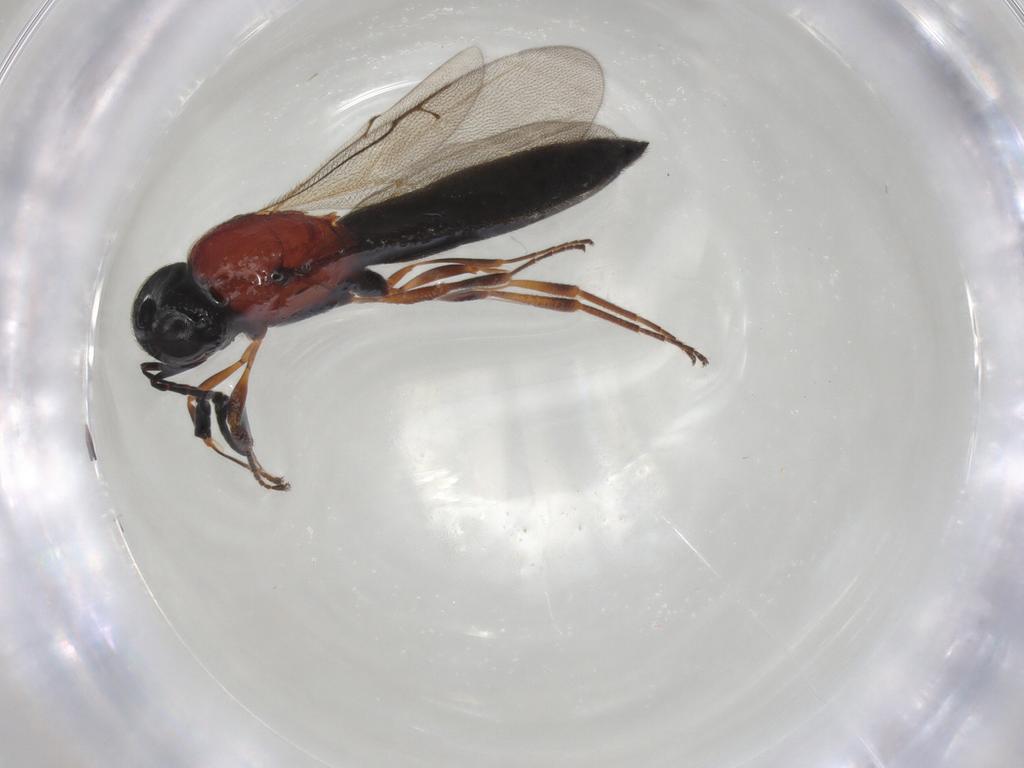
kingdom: Animalia
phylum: Arthropoda
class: Insecta
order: Hymenoptera
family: Scelionidae
